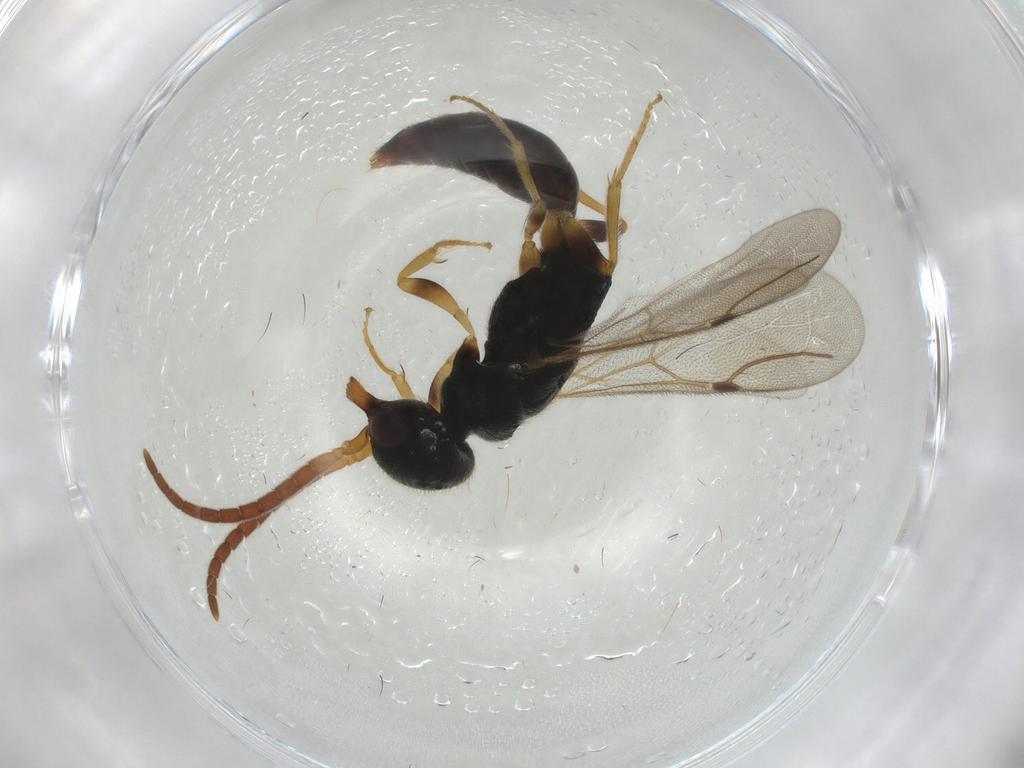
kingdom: Animalia
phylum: Arthropoda
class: Insecta
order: Hymenoptera
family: Bethylidae
